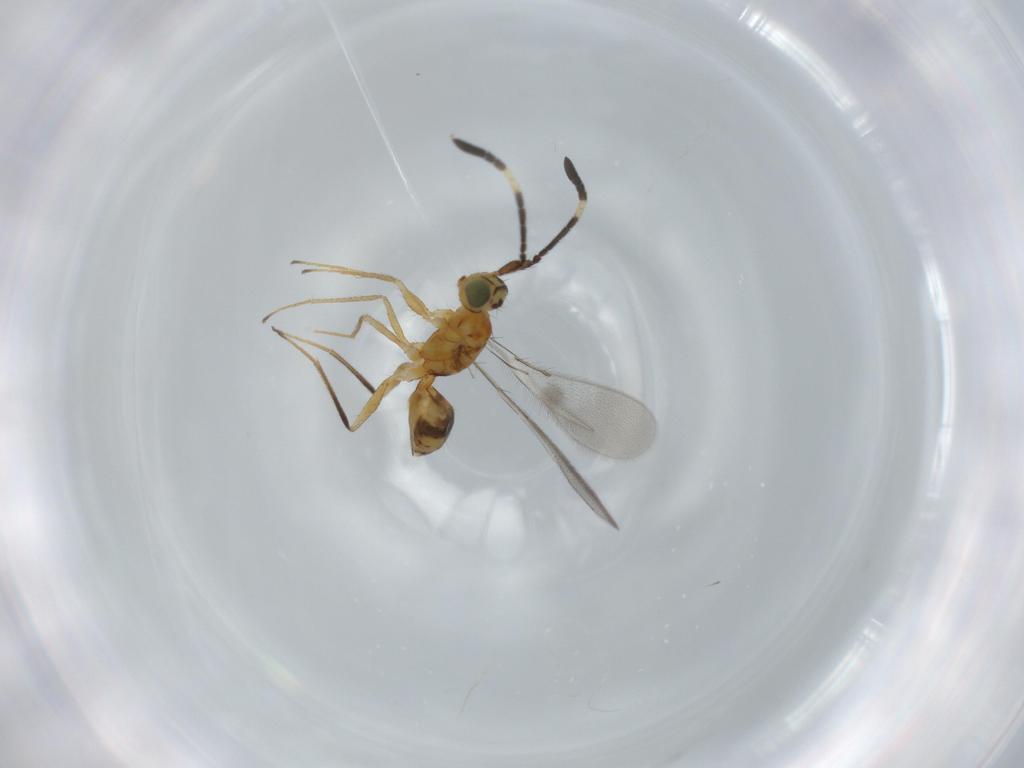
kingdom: Animalia
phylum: Arthropoda
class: Insecta
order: Hymenoptera
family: Mymaridae
